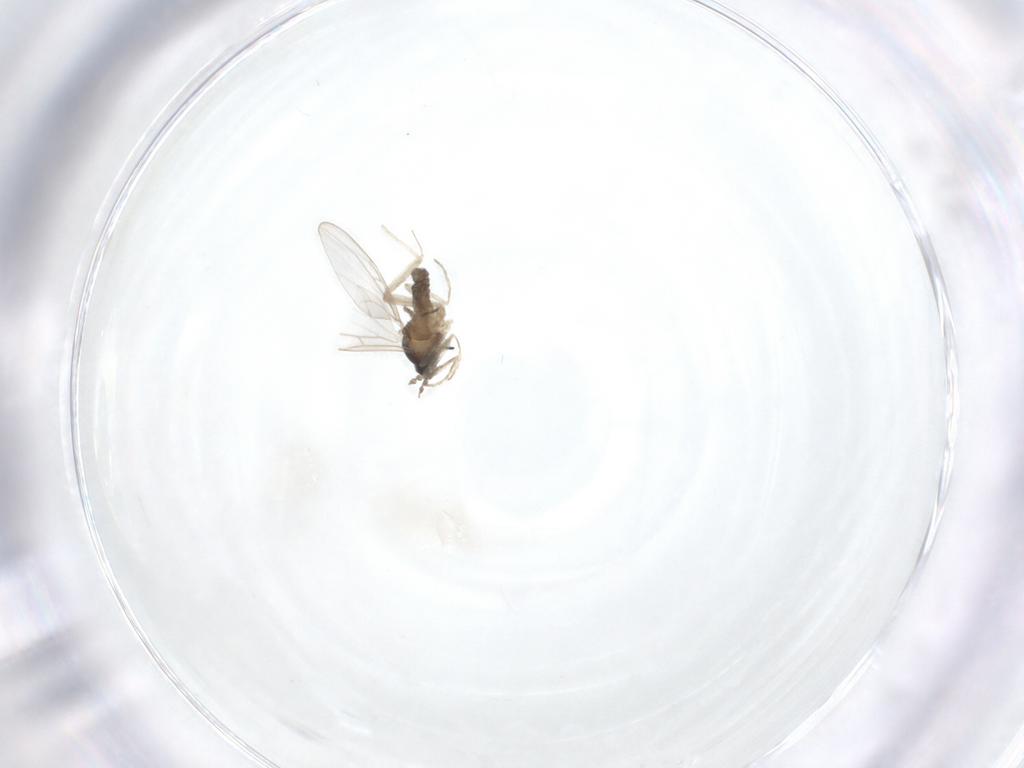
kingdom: Animalia
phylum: Arthropoda
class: Insecta
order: Diptera
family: Chironomidae
